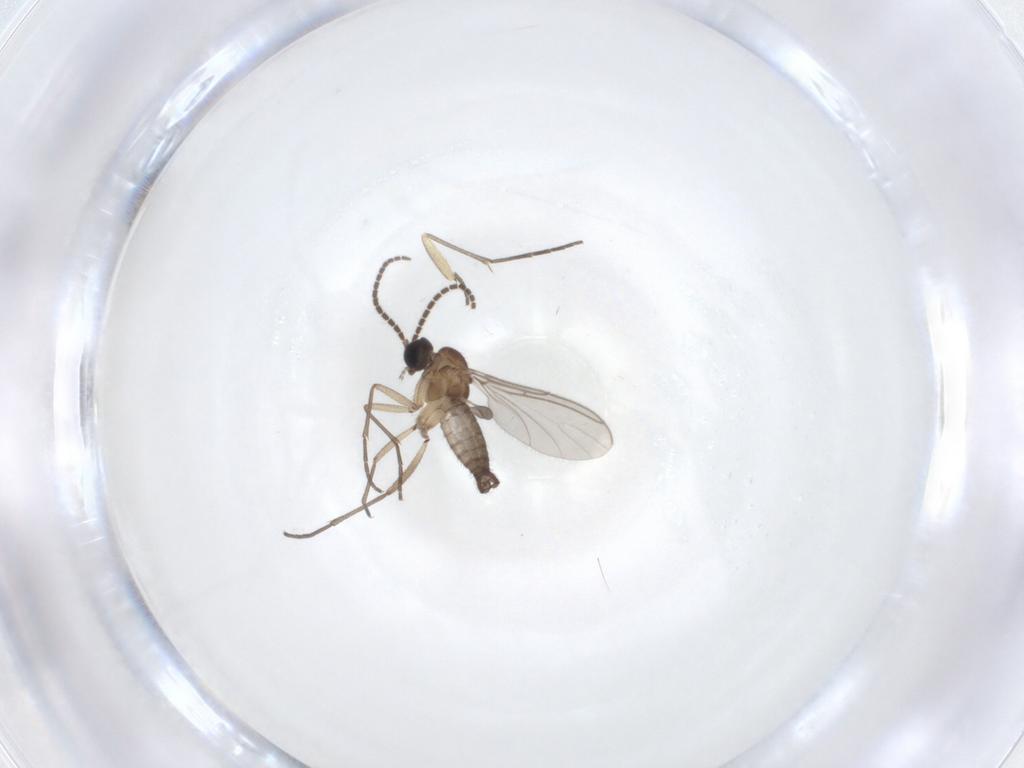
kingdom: Animalia
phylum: Arthropoda
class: Insecta
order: Diptera
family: Sciaridae
